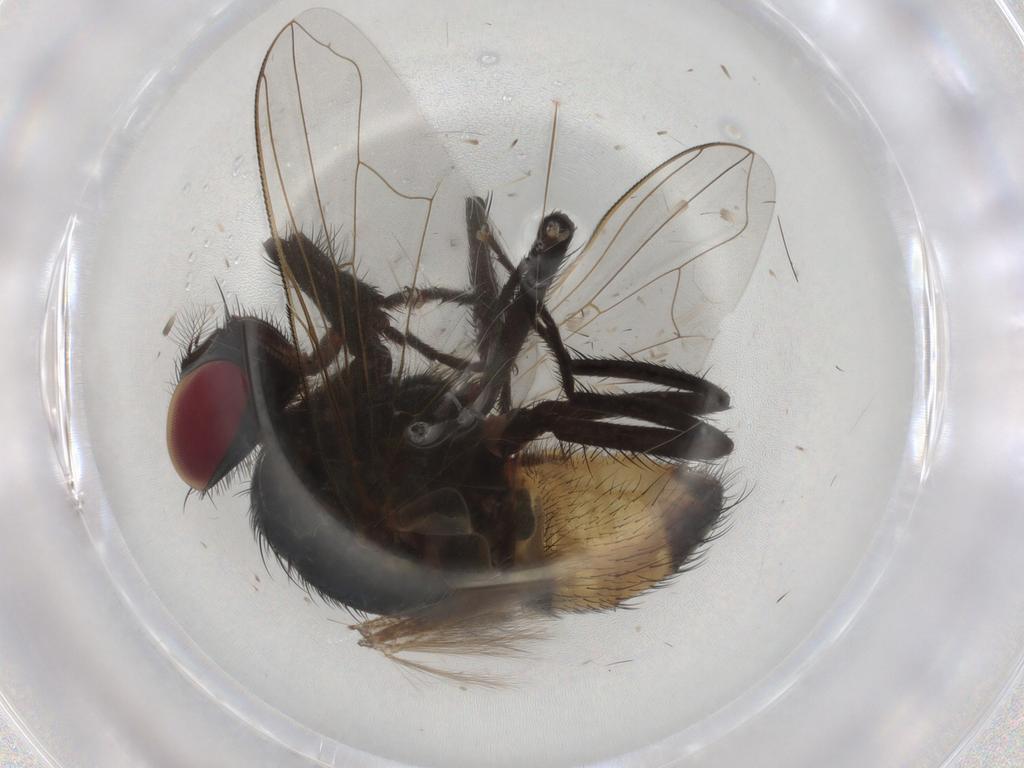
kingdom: Animalia
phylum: Arthropoda
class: Insecta
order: Diptera
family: Muscidae
